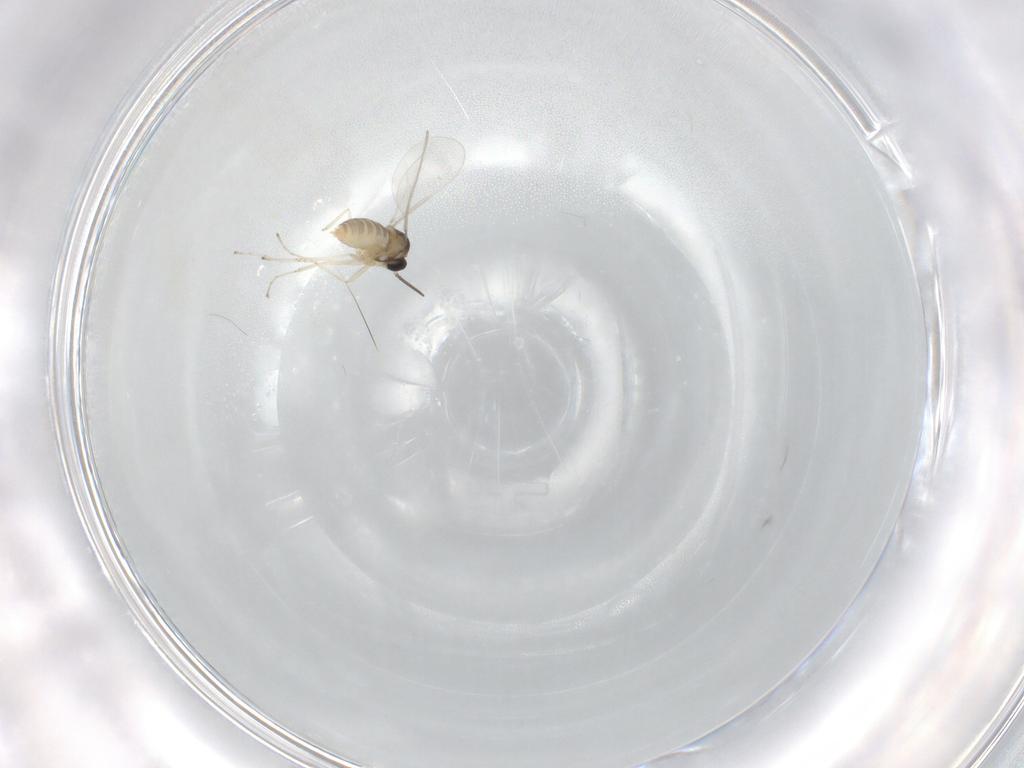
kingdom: Animalia
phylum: Arthropoda
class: Insecta
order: Diptera
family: Cecidomyiidae
